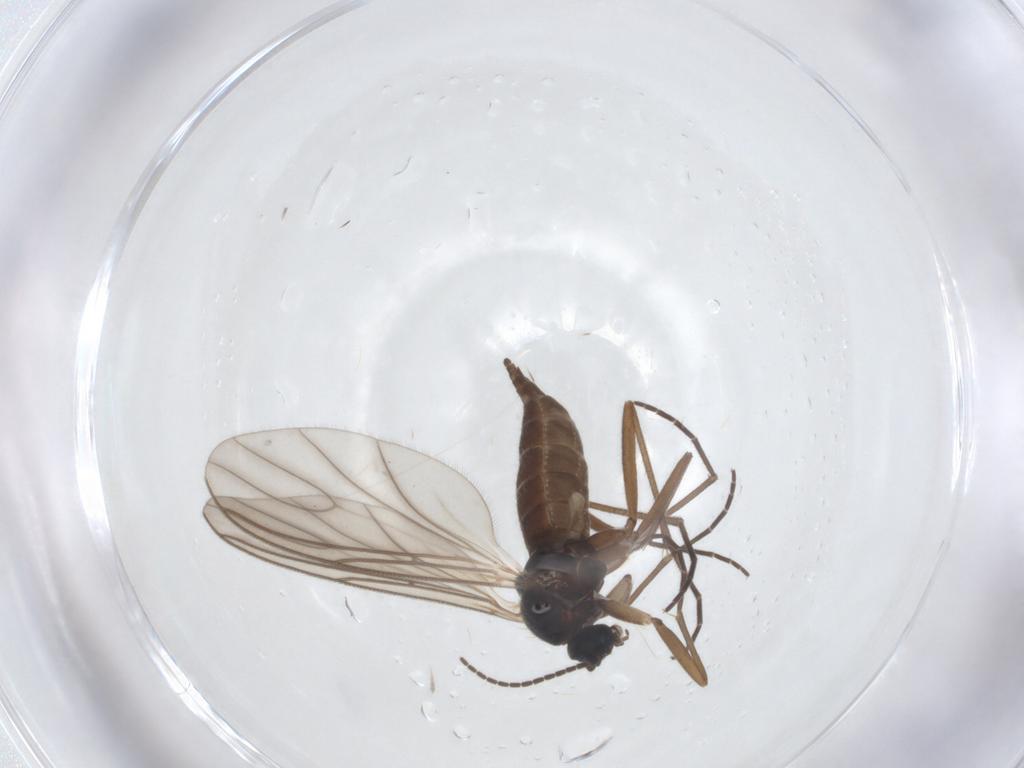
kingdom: Animalia
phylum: Arthropoda
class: Insecta
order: Diptera
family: Sciaridae
